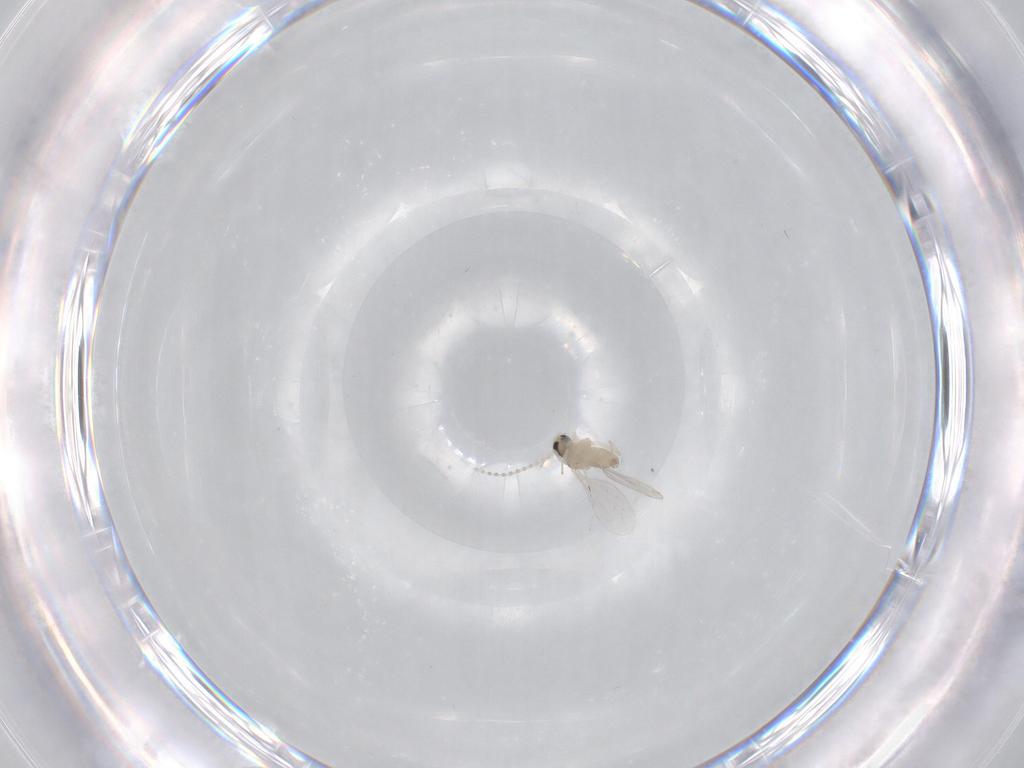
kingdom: Animalia
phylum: Arthropoda
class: Insecta
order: Diptera
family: Cecidomyiidae
